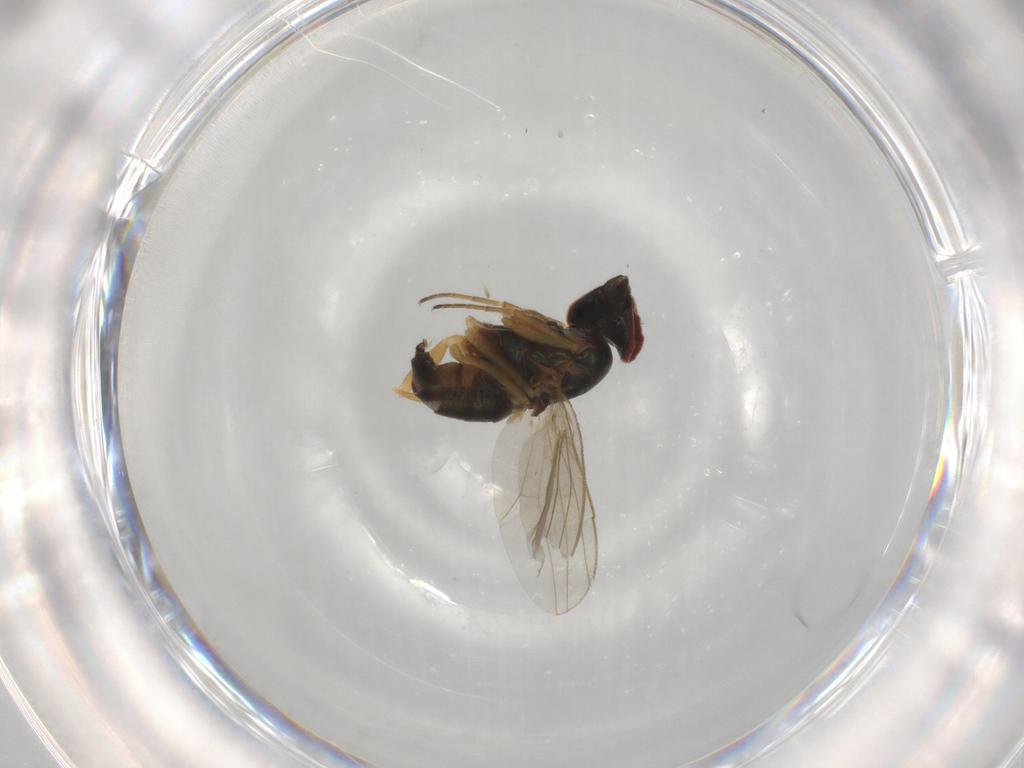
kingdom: Animalia
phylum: Arthropoda
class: Insecta
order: Diptera
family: Dolichopodidae
